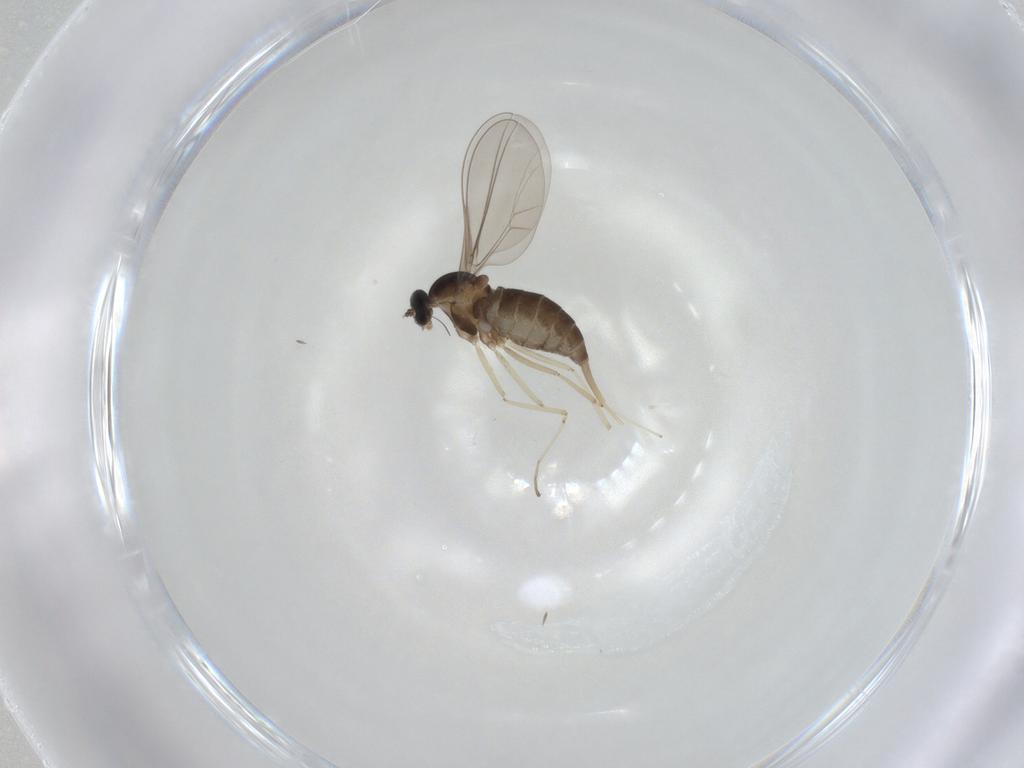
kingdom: Animalia
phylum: Arthropoda
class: Insecta
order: Diptera
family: Cecidomyiidae
